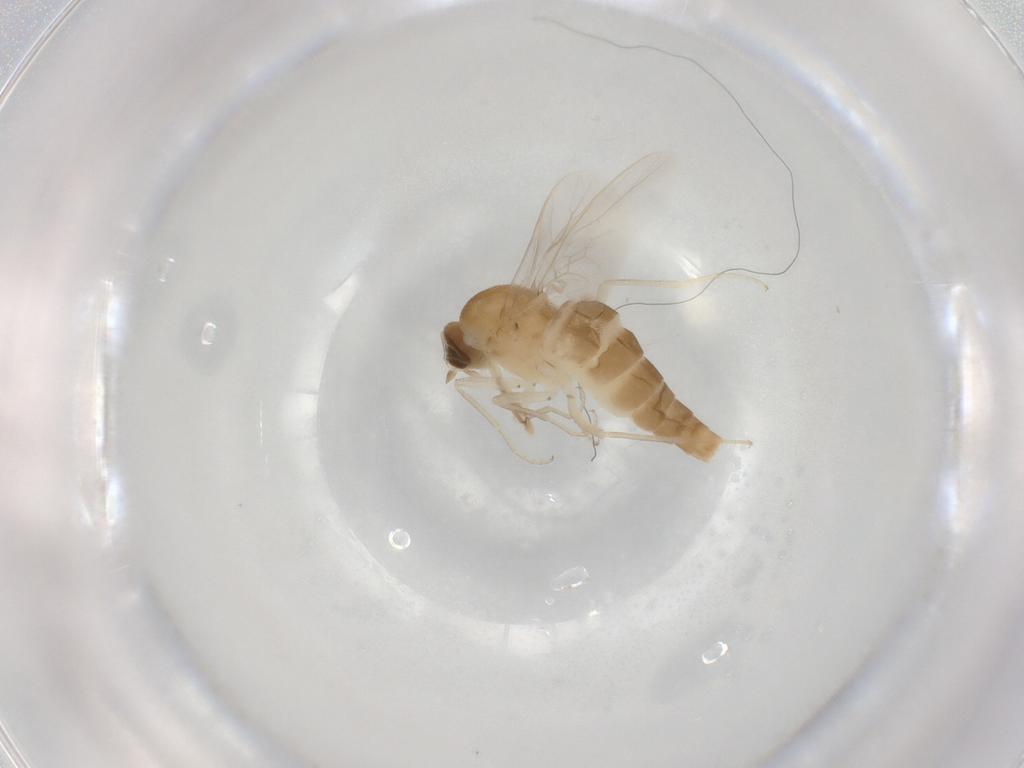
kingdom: Animalia
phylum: Arthropoda
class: Insecta
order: Diptera
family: Scenopinidae
